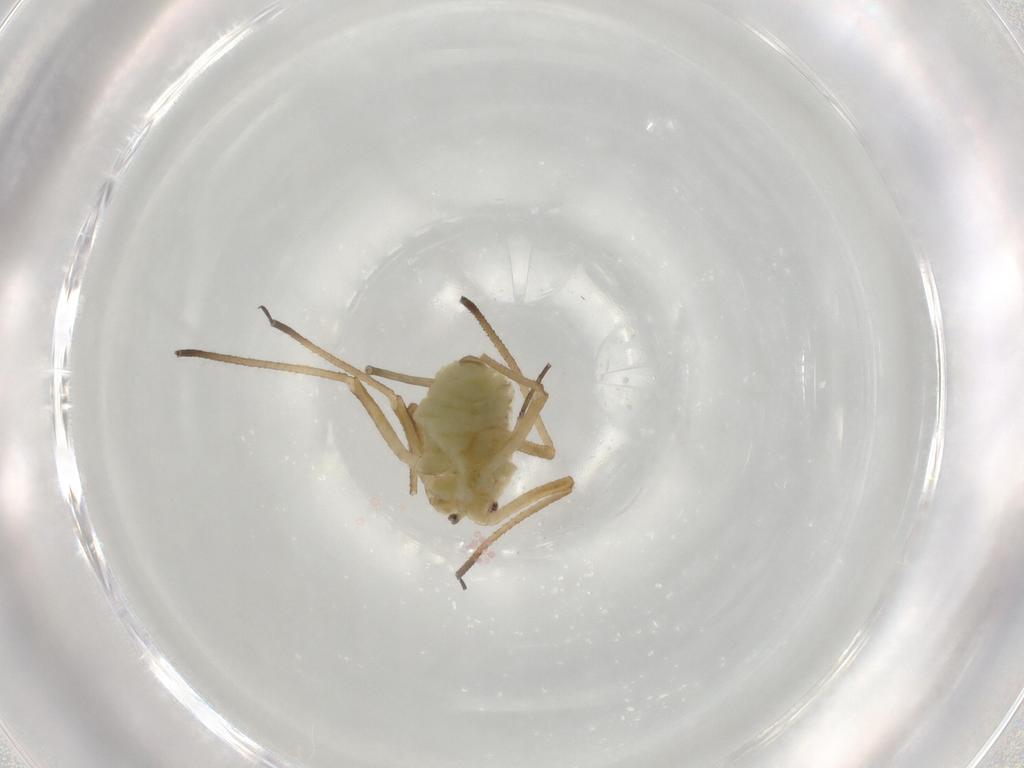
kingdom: Animalia
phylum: Arthropoda
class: Insecta
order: Hemiptera
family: Aphididae
